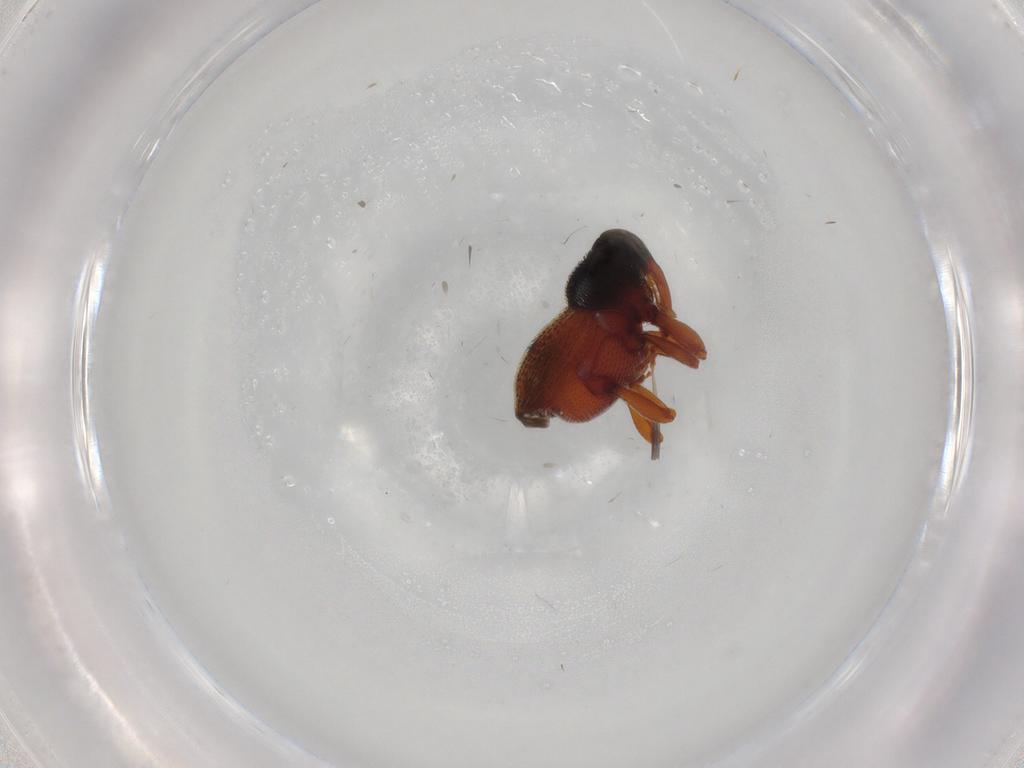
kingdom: Animalia
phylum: Arthropoda
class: Insecta
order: Coleoptera
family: Curculionidae
